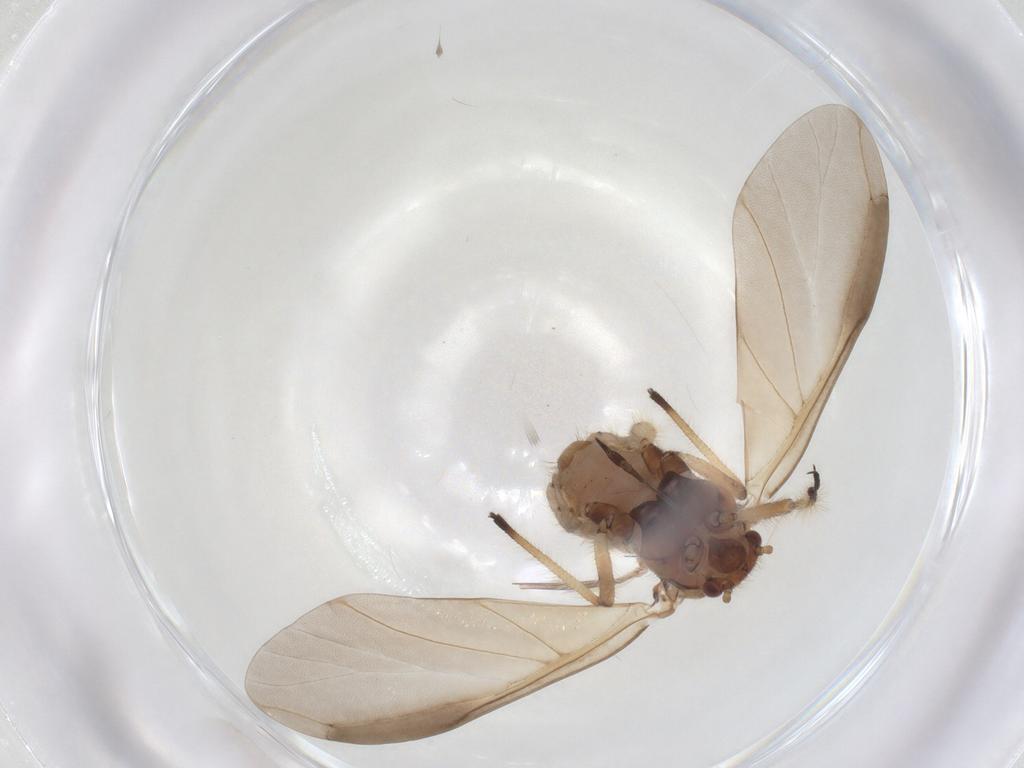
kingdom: Animalia
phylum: Arthropoda
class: Insecta
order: Hemiptera
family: Aphididae
